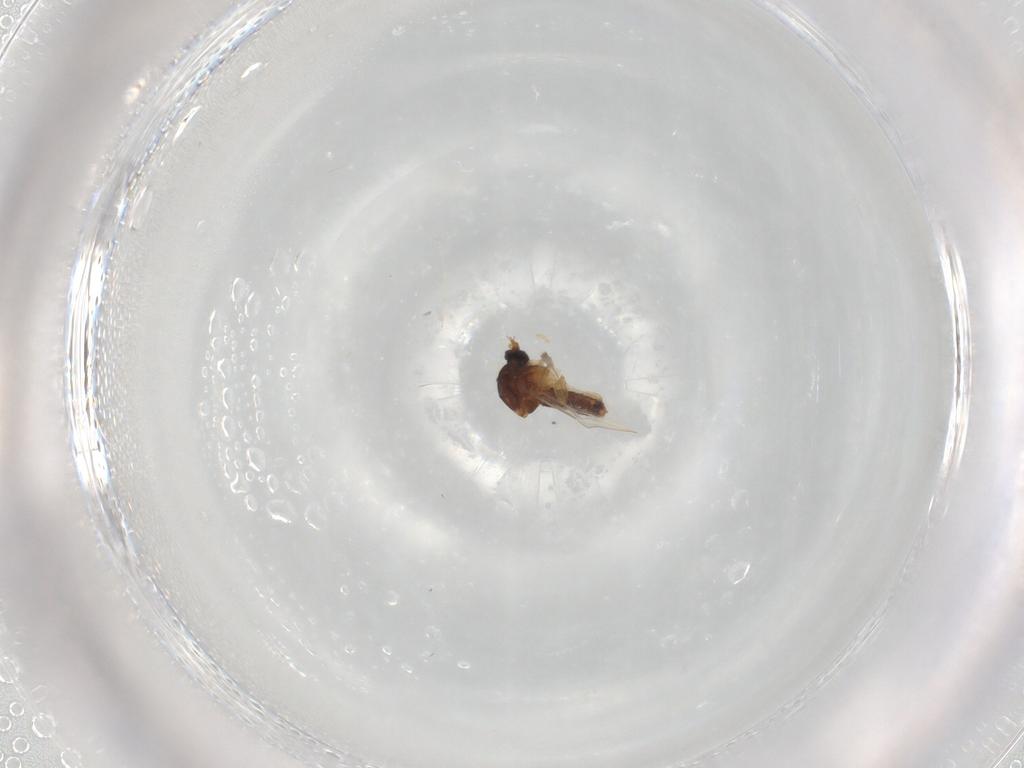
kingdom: Animalia
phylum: Arthropoda
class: Insecta
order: Diptera
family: Ceratopogonidae
